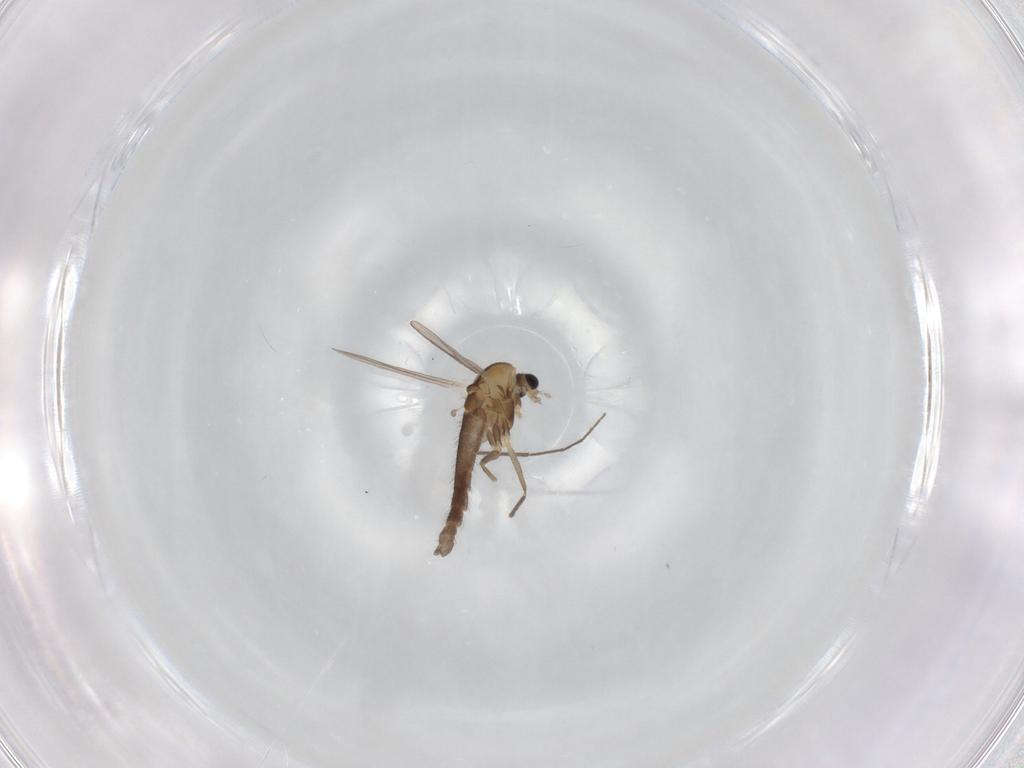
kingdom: Animalia
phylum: Arthropoda
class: Insecta
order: Diptera
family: Chironomidae
